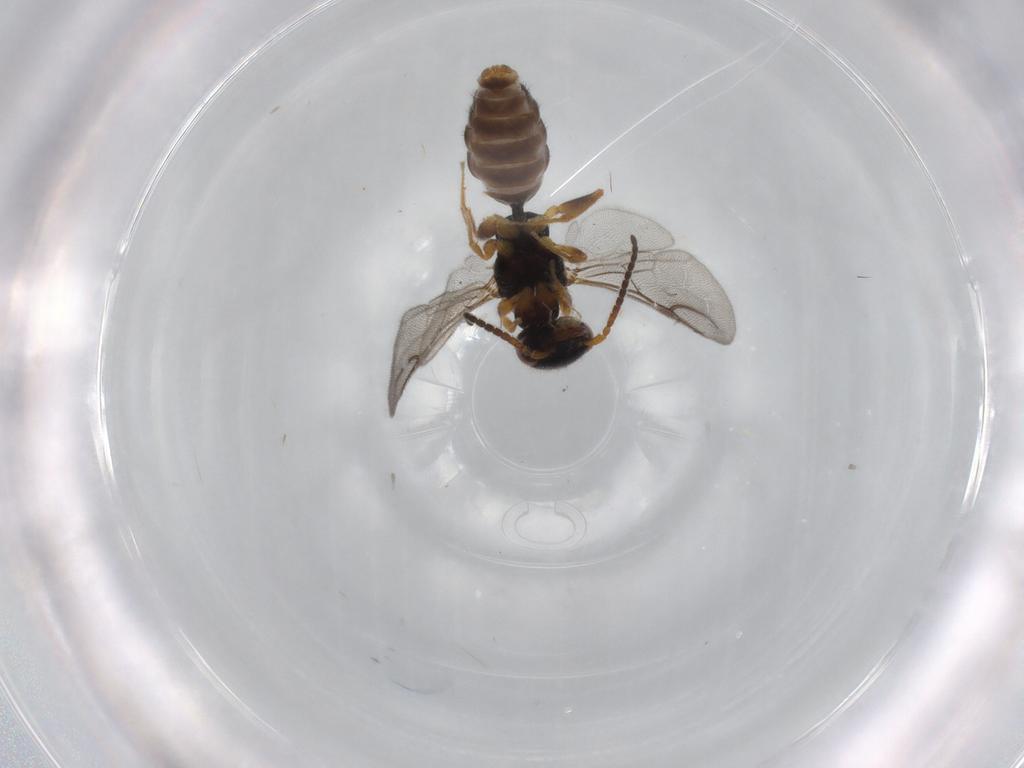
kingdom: Animalia
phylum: Arthropoda
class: Insecta
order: Hymenoptera
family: Bethylidae
